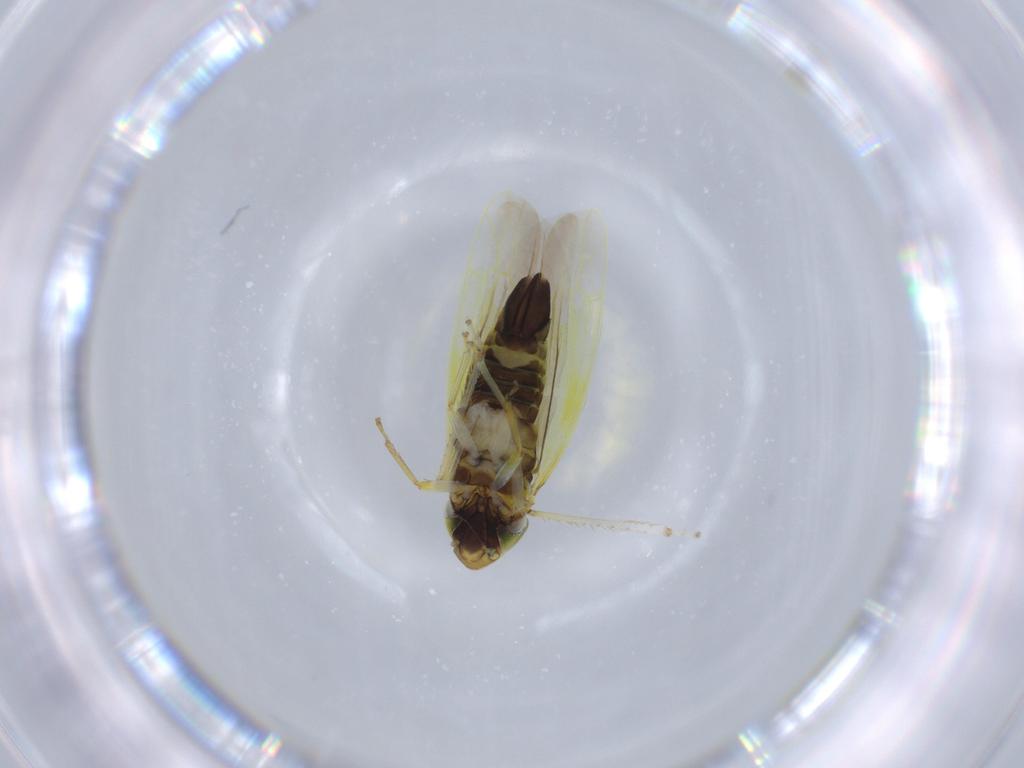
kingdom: Animalia
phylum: Arthropoda
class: Insecta
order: Hemiptera
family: Cicadellidae
